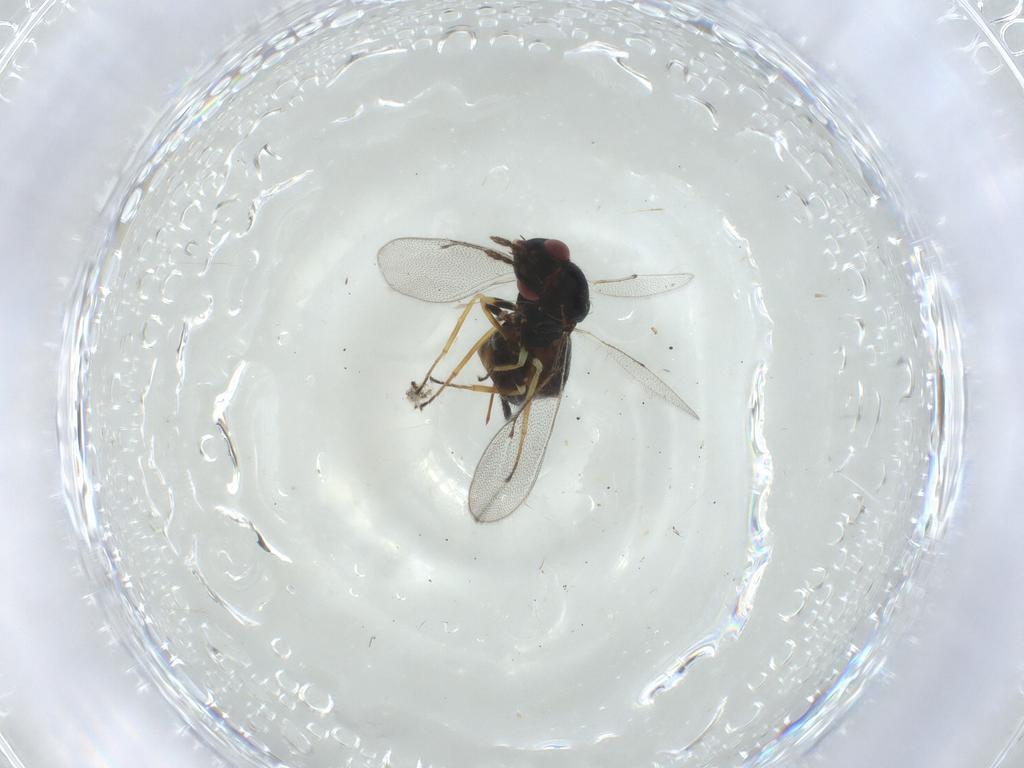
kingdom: Animalia
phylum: Arthropoda
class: Insecta
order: Hymenoptera
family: Eulophidae
